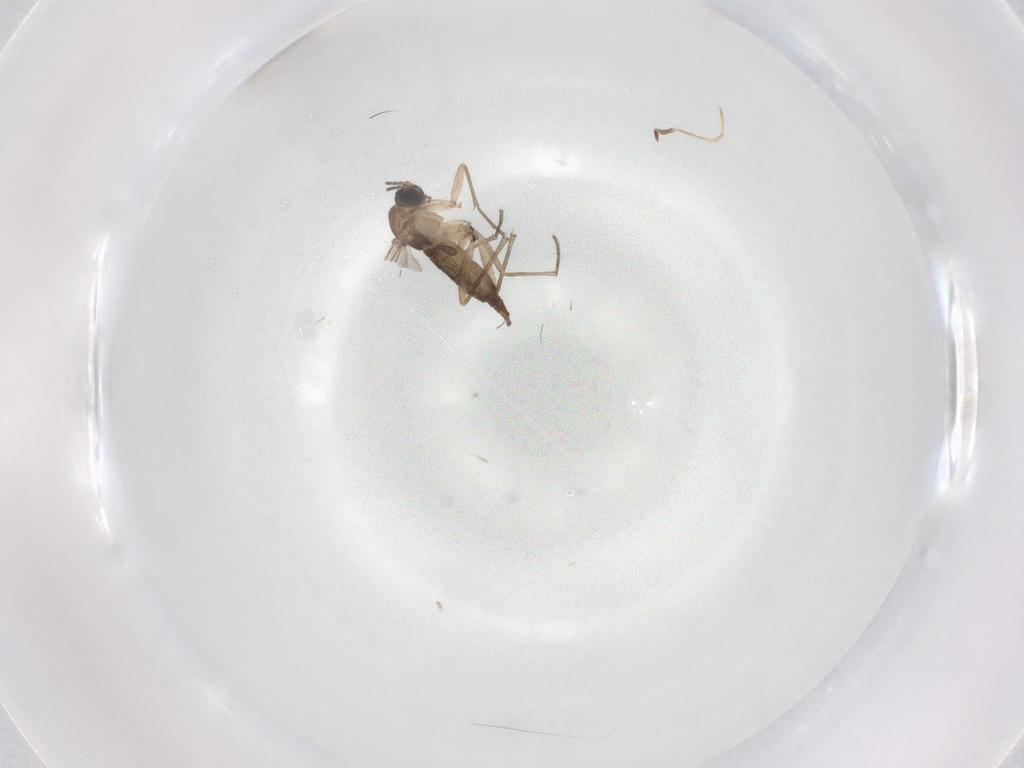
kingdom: Animalia
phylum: Arthropoda
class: Insecta
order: Diptera
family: Sciaridae
